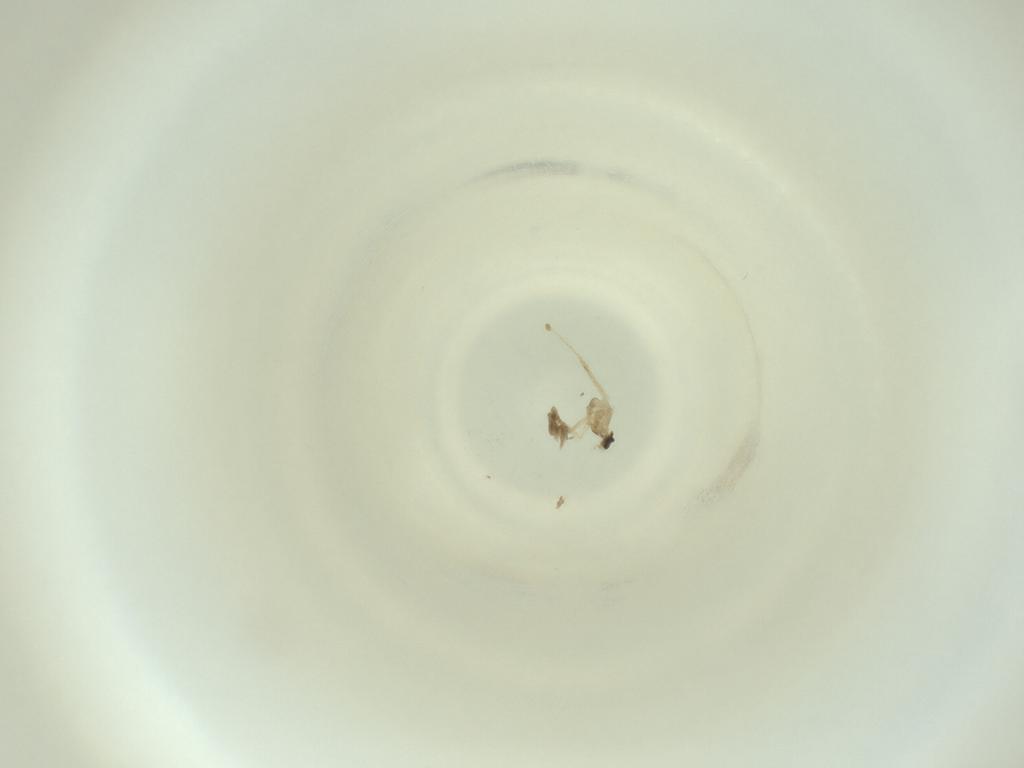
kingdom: Animalia
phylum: Arthropoda
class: Insecta
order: Diptera
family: Cecidomyiidae
